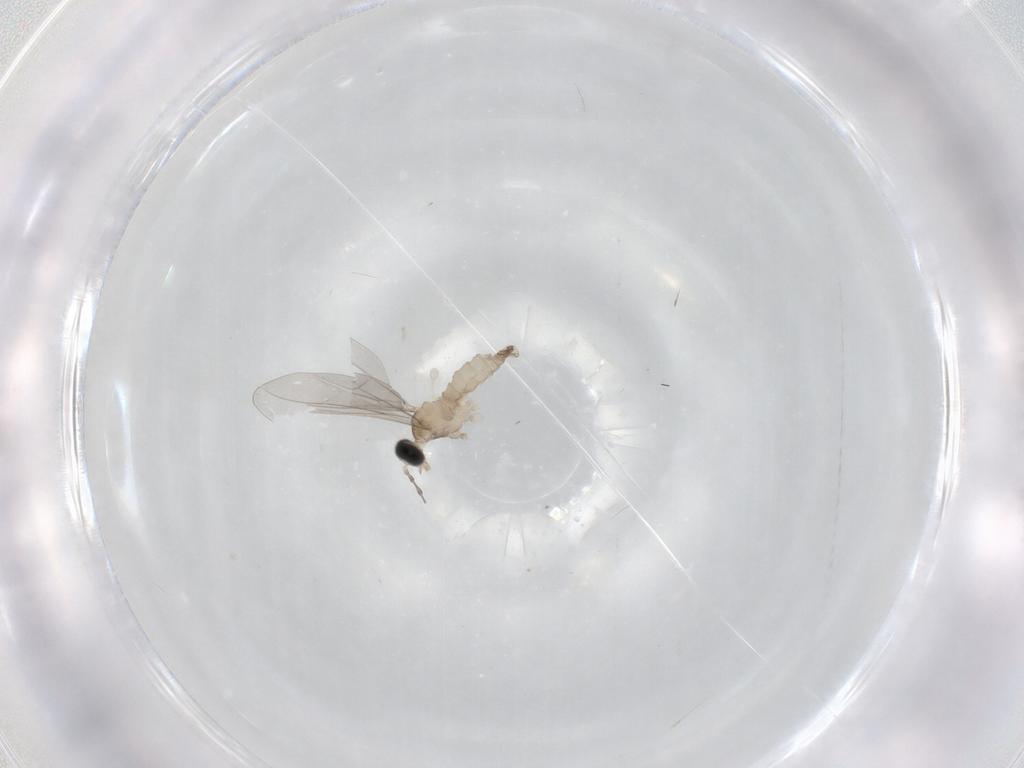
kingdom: Animalia
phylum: Arthropoda
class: Insecta
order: Diptera
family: Cecidomyiidae
